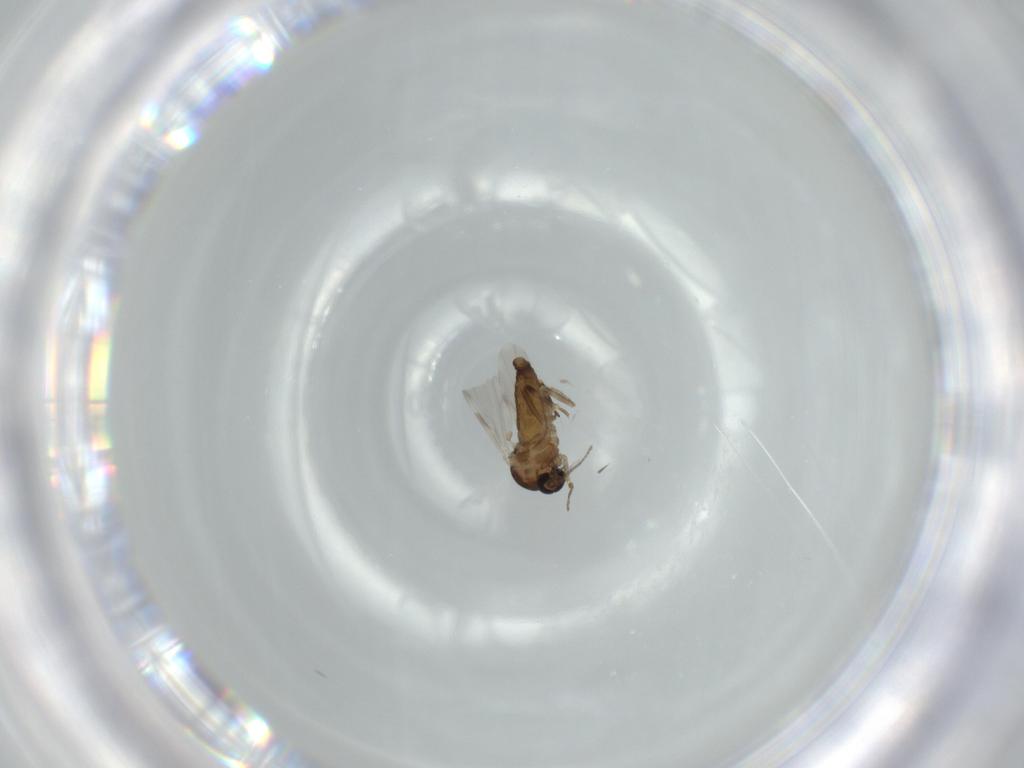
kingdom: Animalia
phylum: Arthropoda
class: Insecta
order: Diptera
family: Ceratopogonidae
